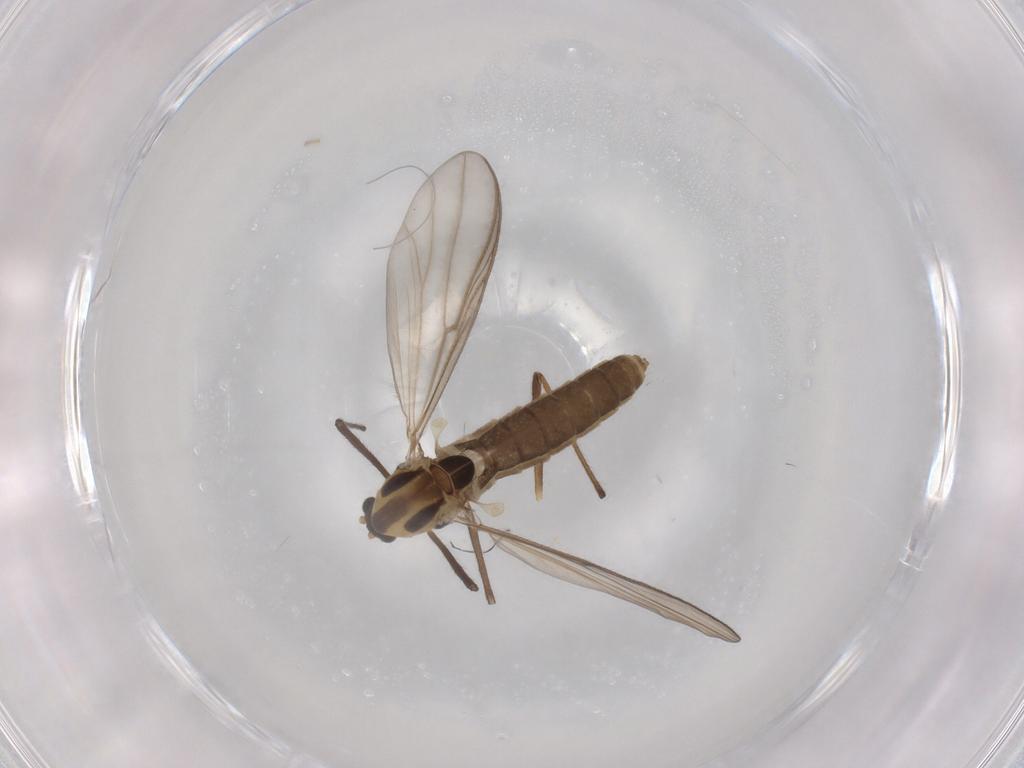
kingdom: Animalia
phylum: Arthropoda
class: Insecta
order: Diptera
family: Chironomidae
